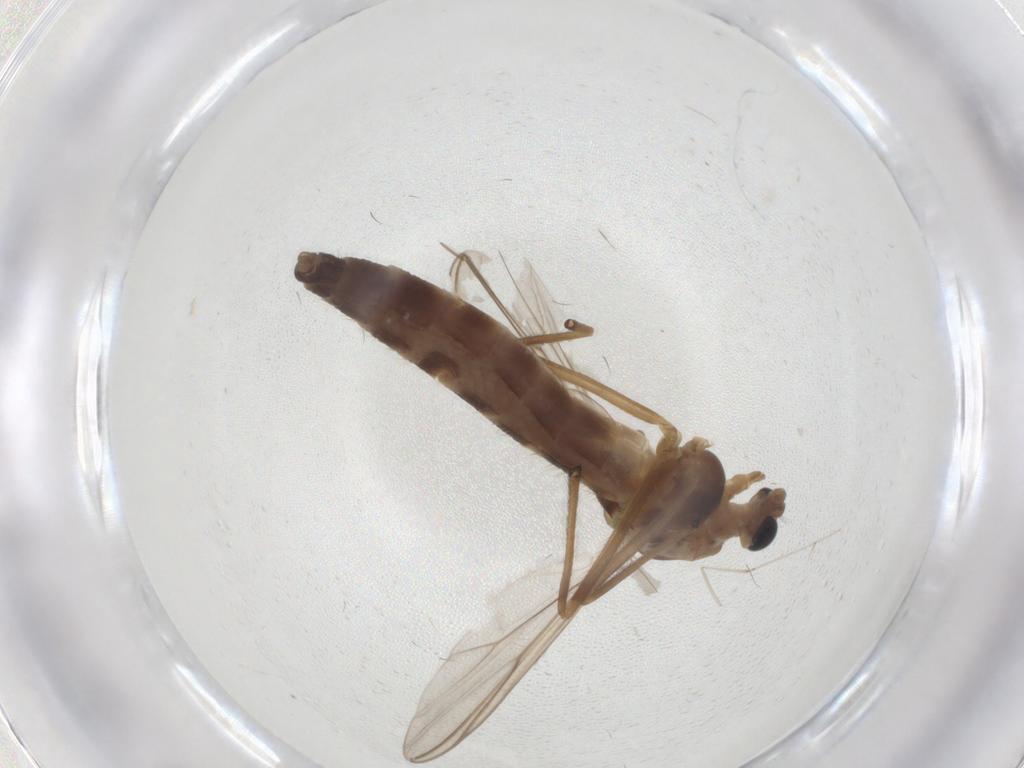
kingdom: Animalia
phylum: Arthropoda
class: Insecta
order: Diptera
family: Chironomidae
